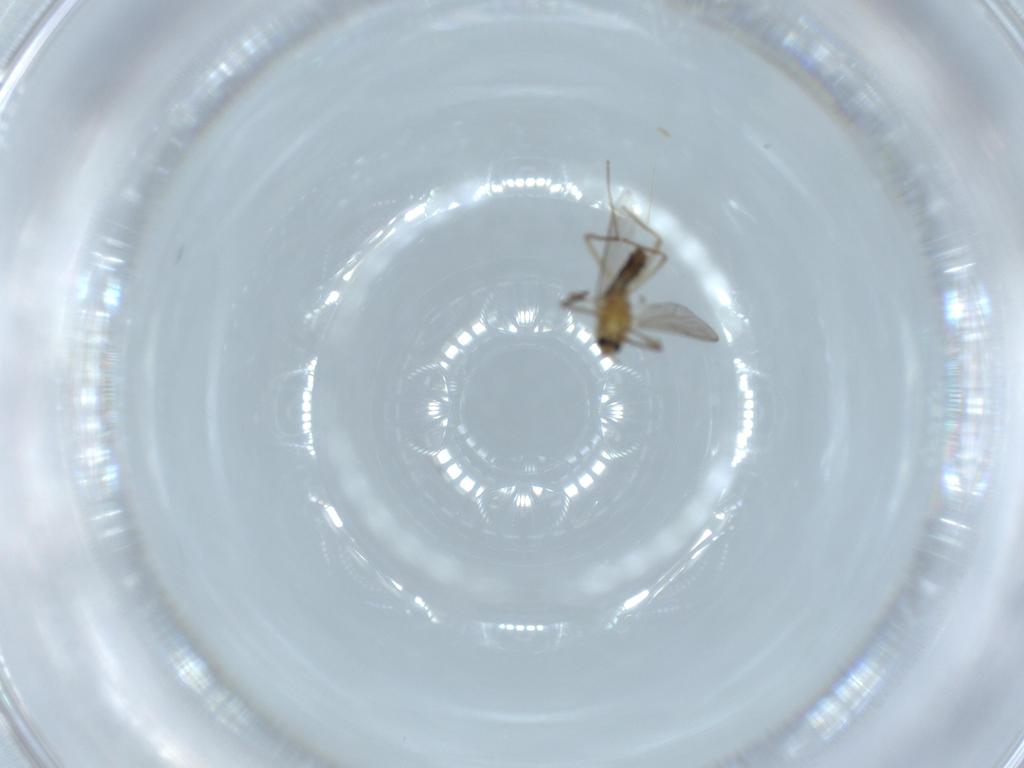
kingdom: Animalia
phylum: Arthropoda
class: Insecta
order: Diptera
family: Chironomidae
